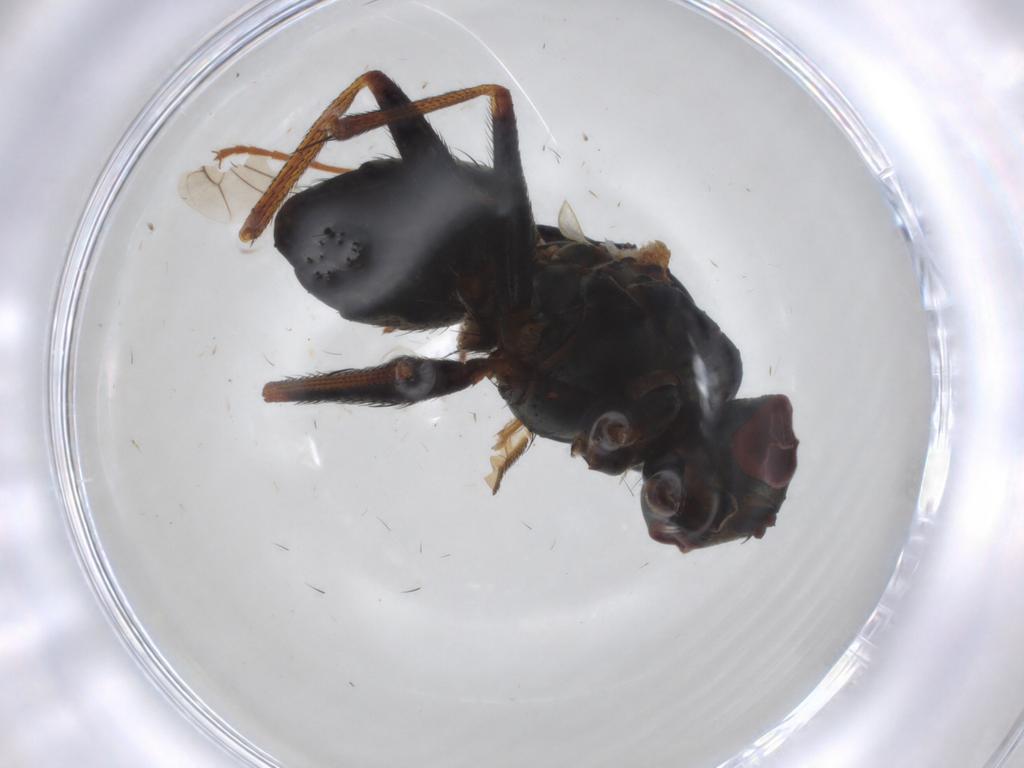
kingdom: Animalia
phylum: Arthropoda
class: Insecta
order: Diptera
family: Muscidae
